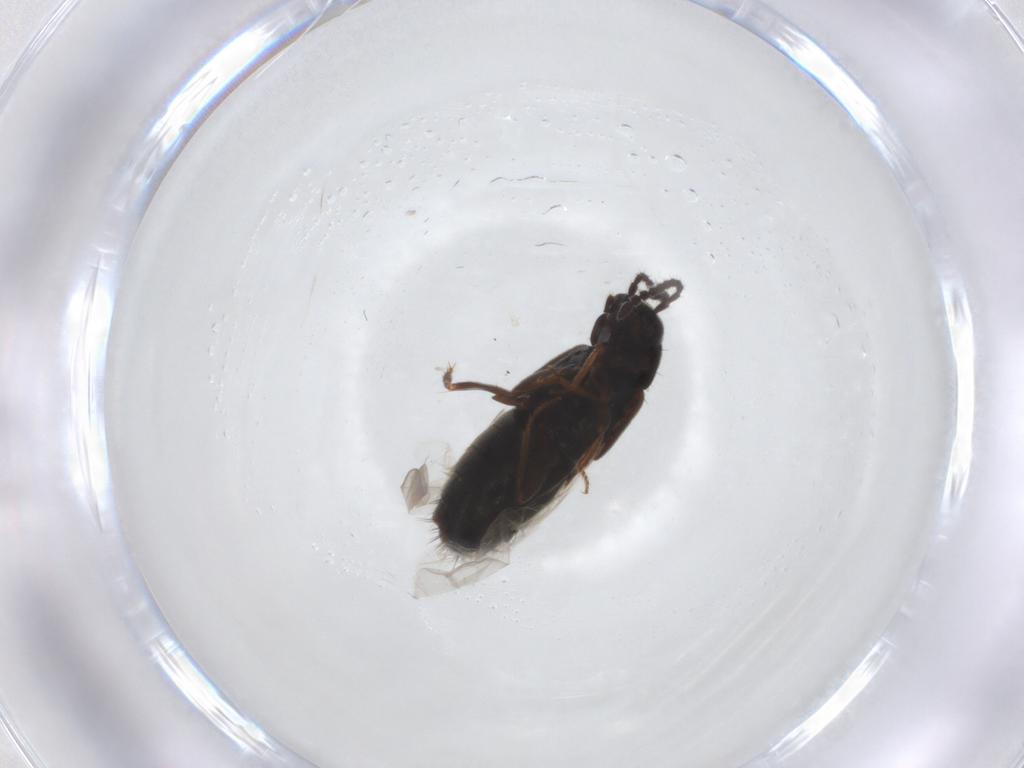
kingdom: Animalia
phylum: Arthropoda
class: Insecta
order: Coleoptera
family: Staphylinidae
